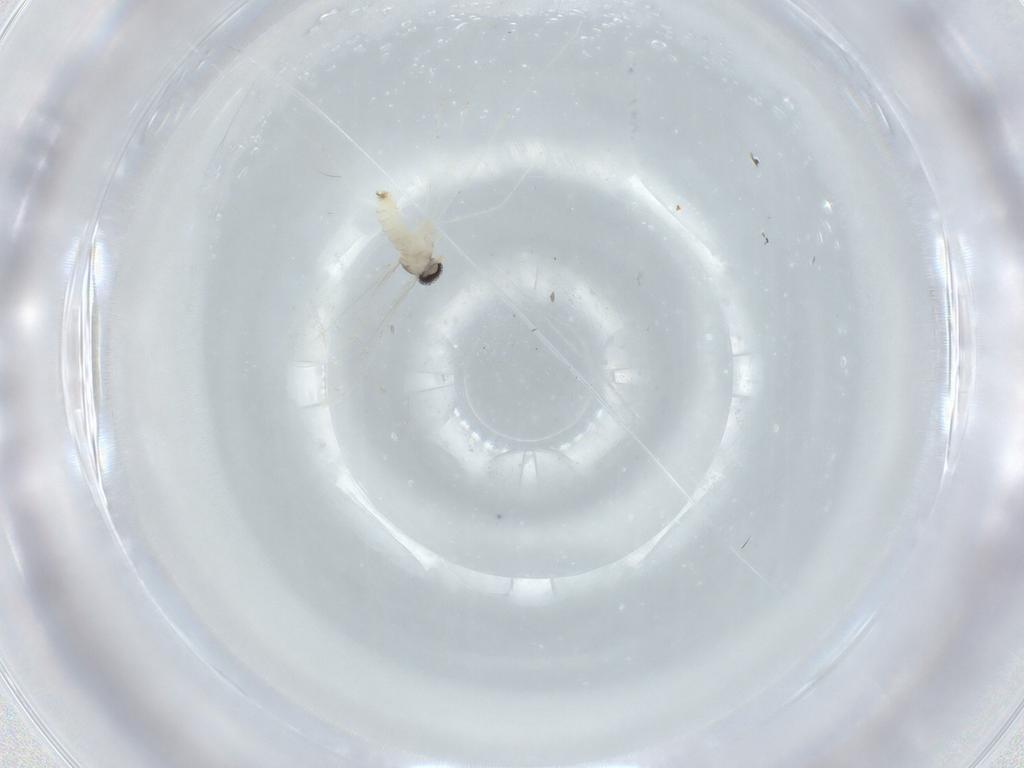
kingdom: Animalia
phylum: Arthropoda
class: Insecta
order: Diptera
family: Cecidomyiidae
